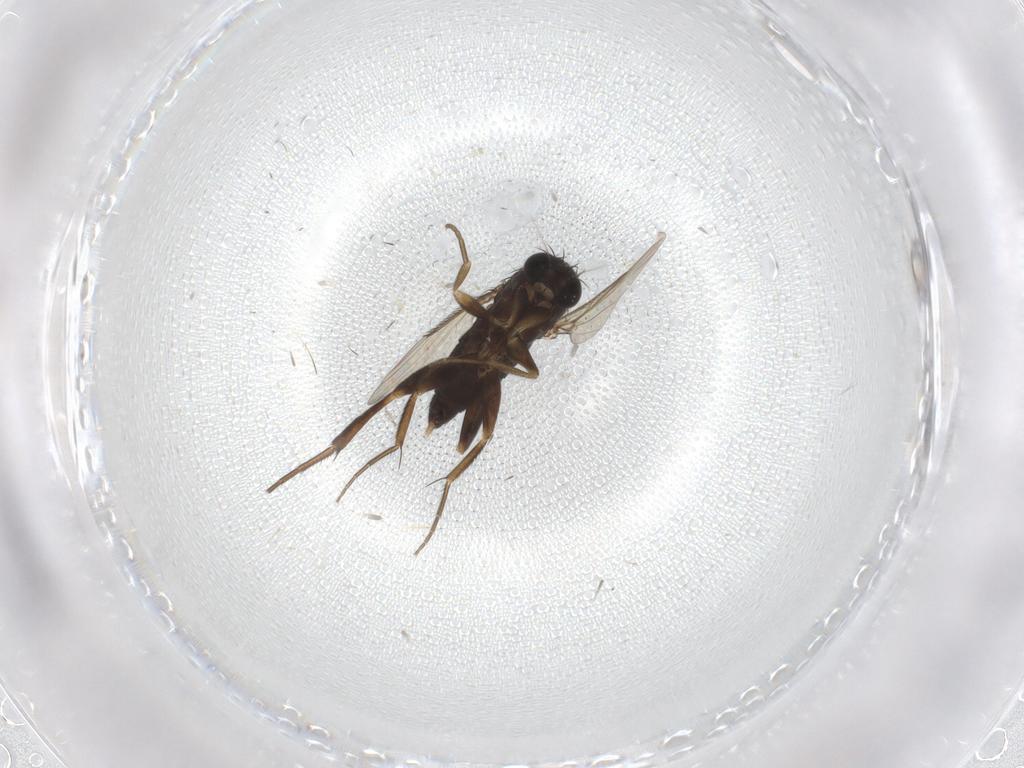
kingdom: Animalia
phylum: Arthropoda
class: Insecta
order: Diptera
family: Phoridae
